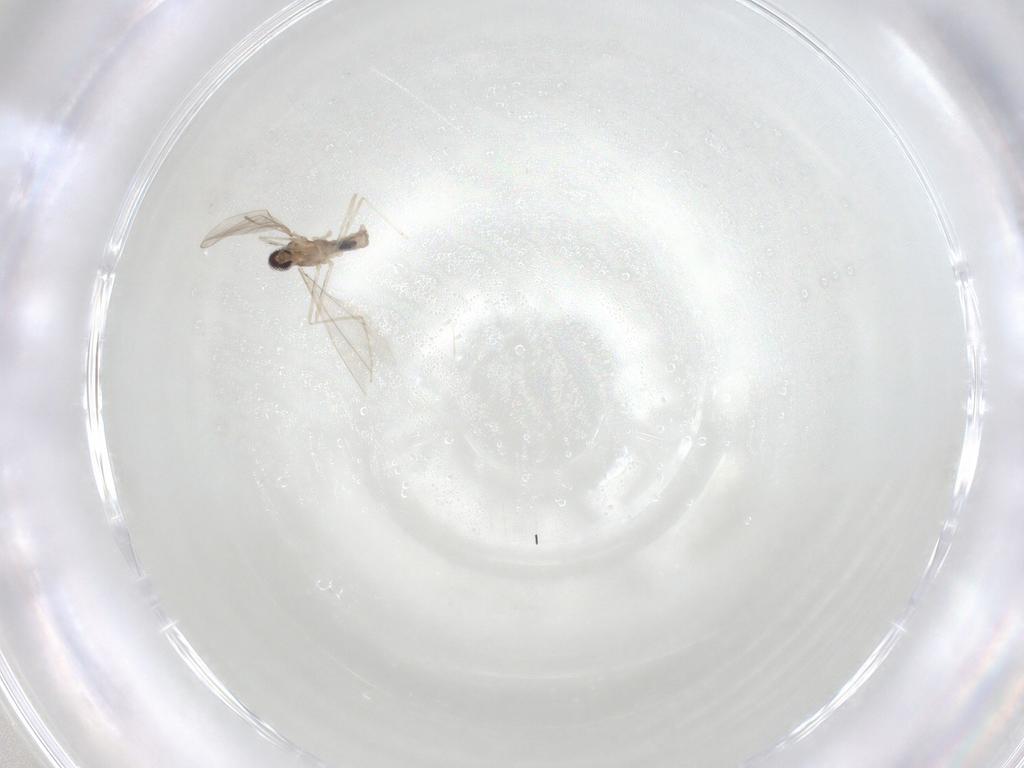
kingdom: Animalia
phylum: Arthropoda
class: Insecta
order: Diptera
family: Cecidomyiidae
